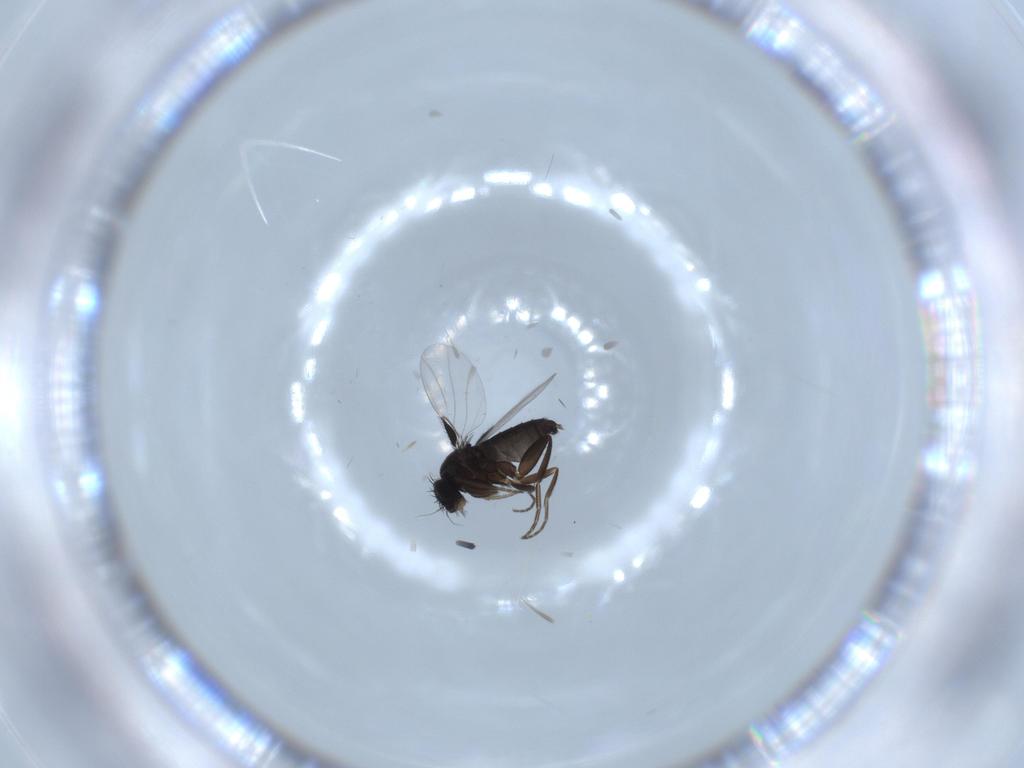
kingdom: Animalia
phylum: Arthropoda
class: Insecta
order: Diptera
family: Phoridae
